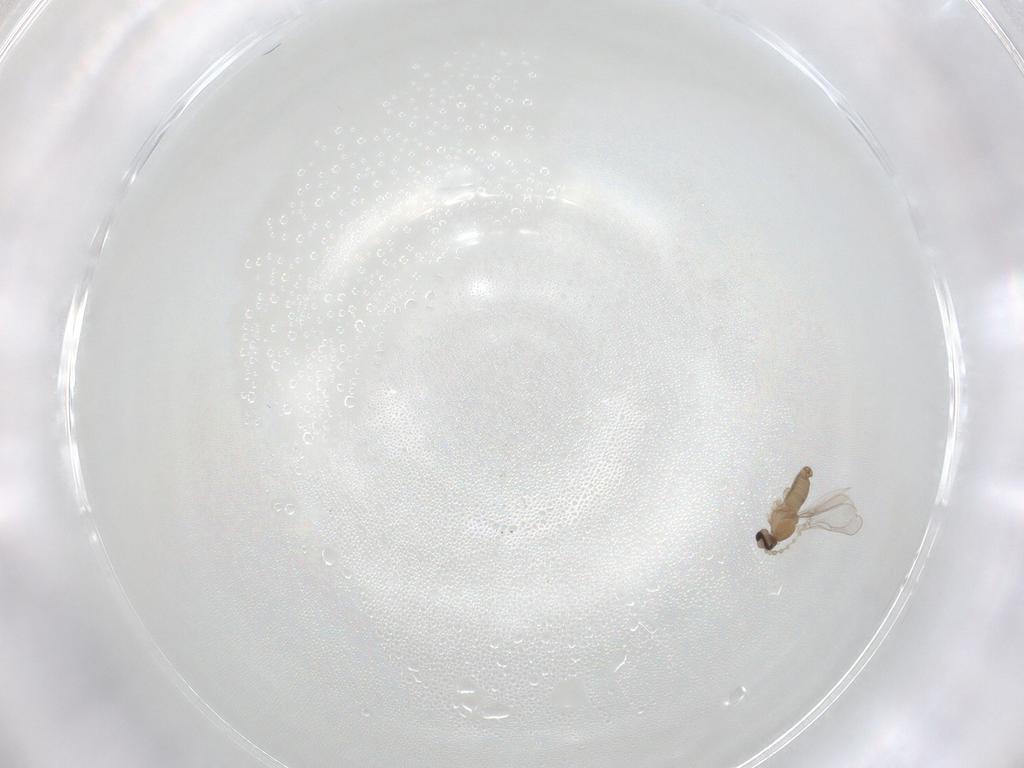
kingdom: Animalia
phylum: Arthropoda
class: Insecta
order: Diptera
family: Cecidomyiidae
